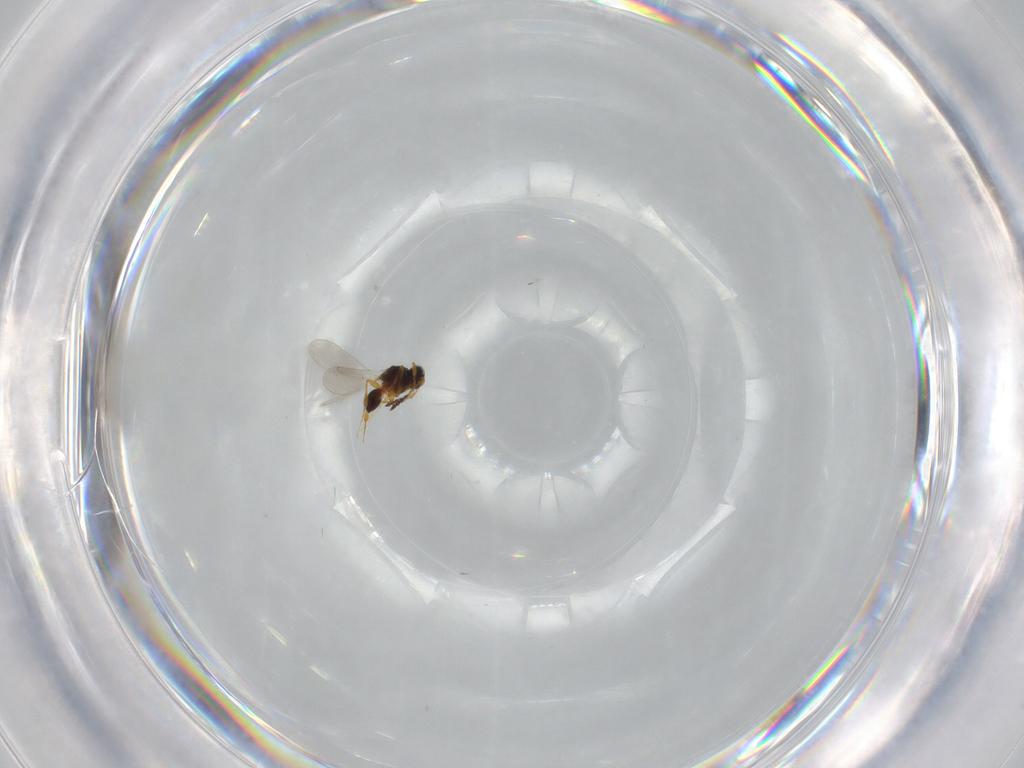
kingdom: Animalia
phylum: Arthropoda
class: Insecta
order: Hymenoptera
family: Platygastridae
